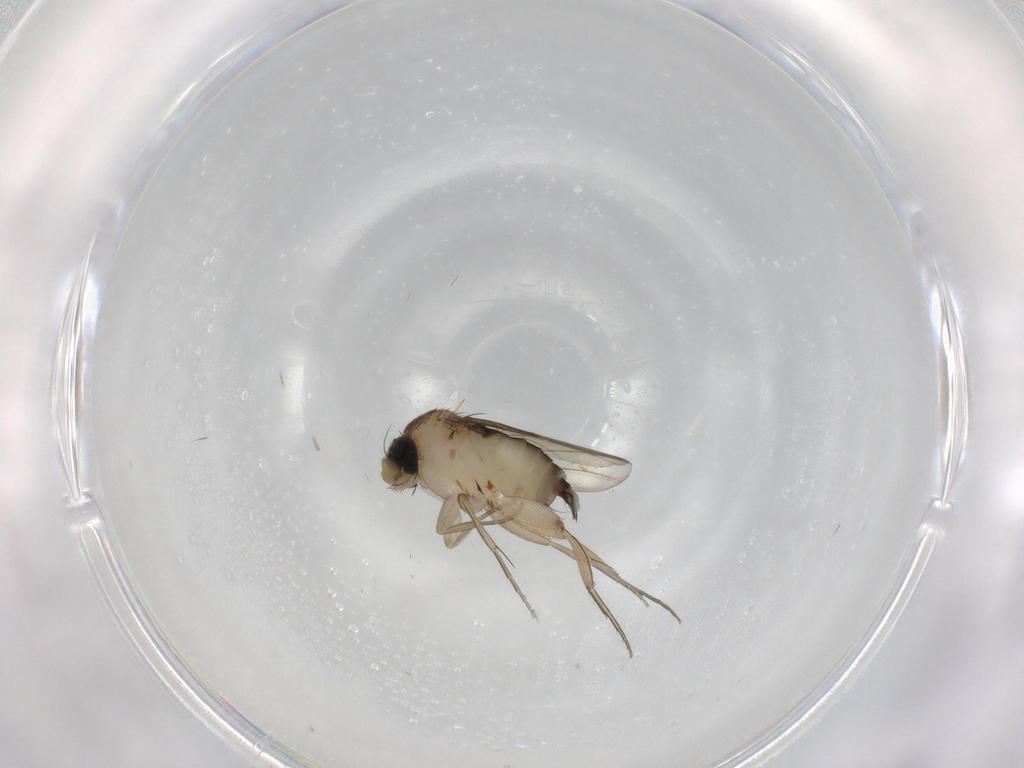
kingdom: Animalia
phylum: Arthropoda
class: Insecta
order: Diptera
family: Phoridae
